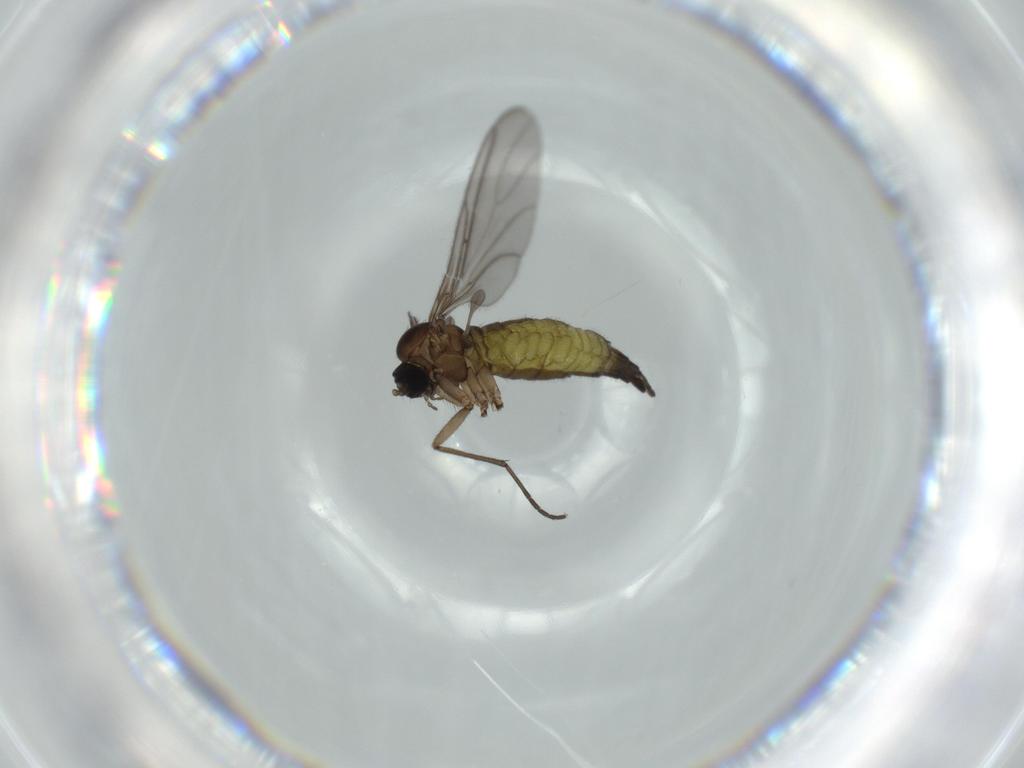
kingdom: Animalia
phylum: Arthropoda
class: Insecta
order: Diptera
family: Sciaridae
